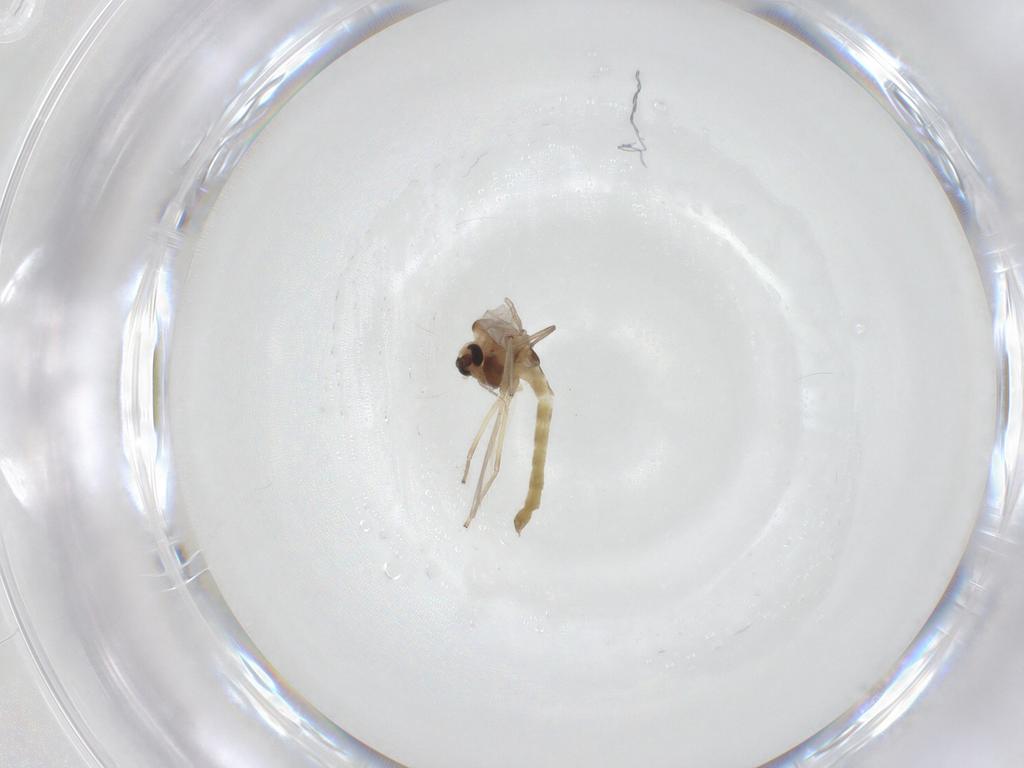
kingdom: Animalia
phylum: Arthropoda
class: Insecta
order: Diptera
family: Chironomidae
